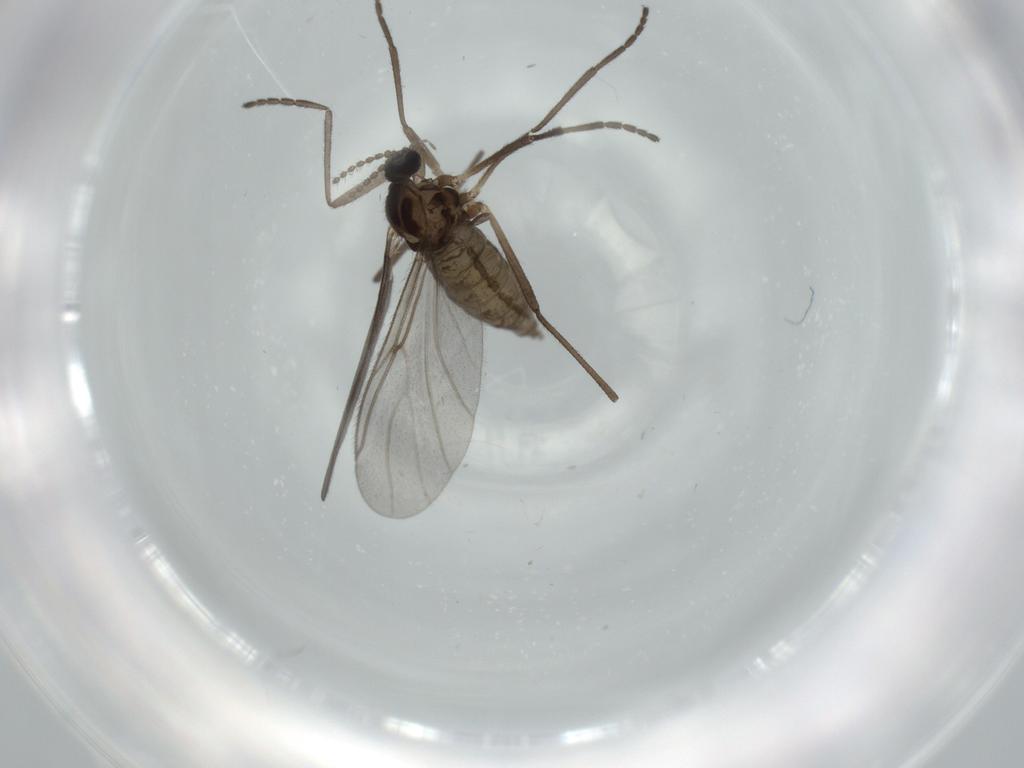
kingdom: Animalia
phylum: Arthropoda
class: Insecta
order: Diptera
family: Cecidomyiidae
